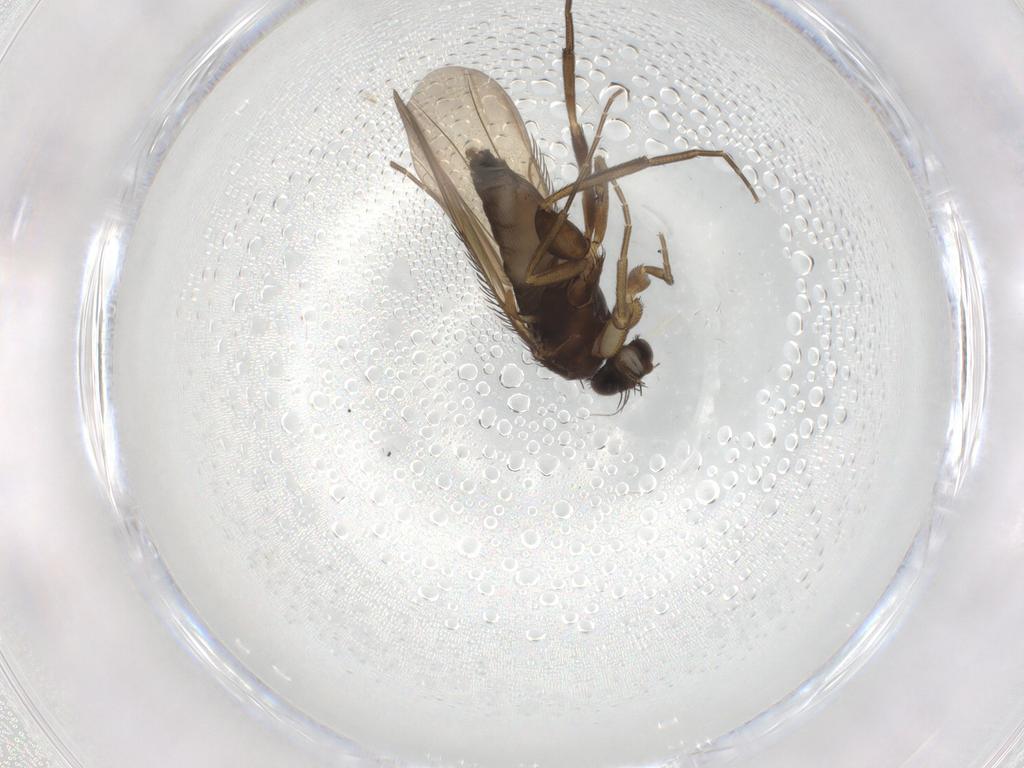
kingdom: Animalia
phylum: Arthropoda
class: Insecta
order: Diptera
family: Phoridae
